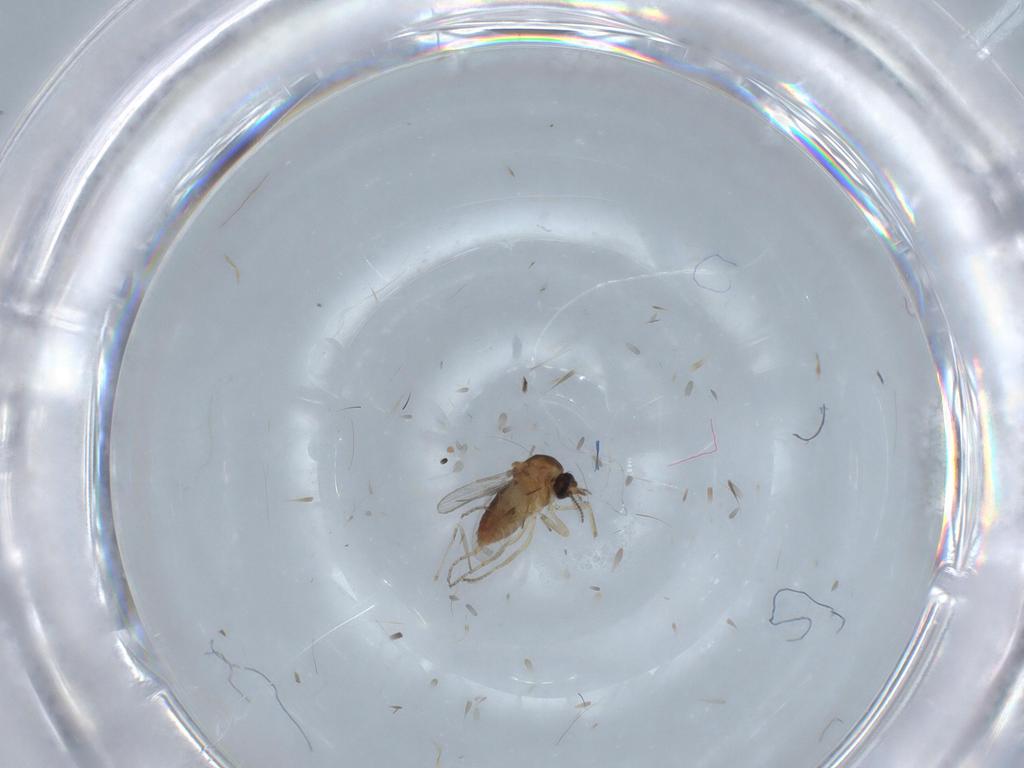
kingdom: Animalia
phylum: Arthropoda
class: Insecta
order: Diptera
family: Ceratopogonidae
